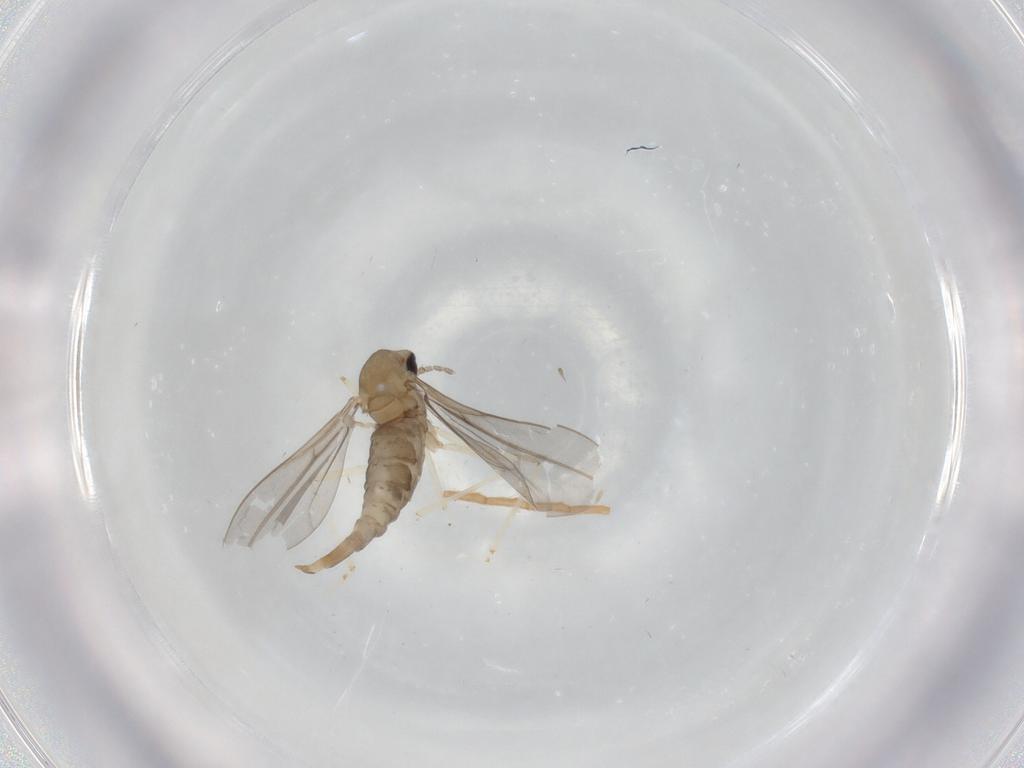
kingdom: Animalia
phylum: Arthropoda
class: Insecta
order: Diptera
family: Cecidomyiidae
